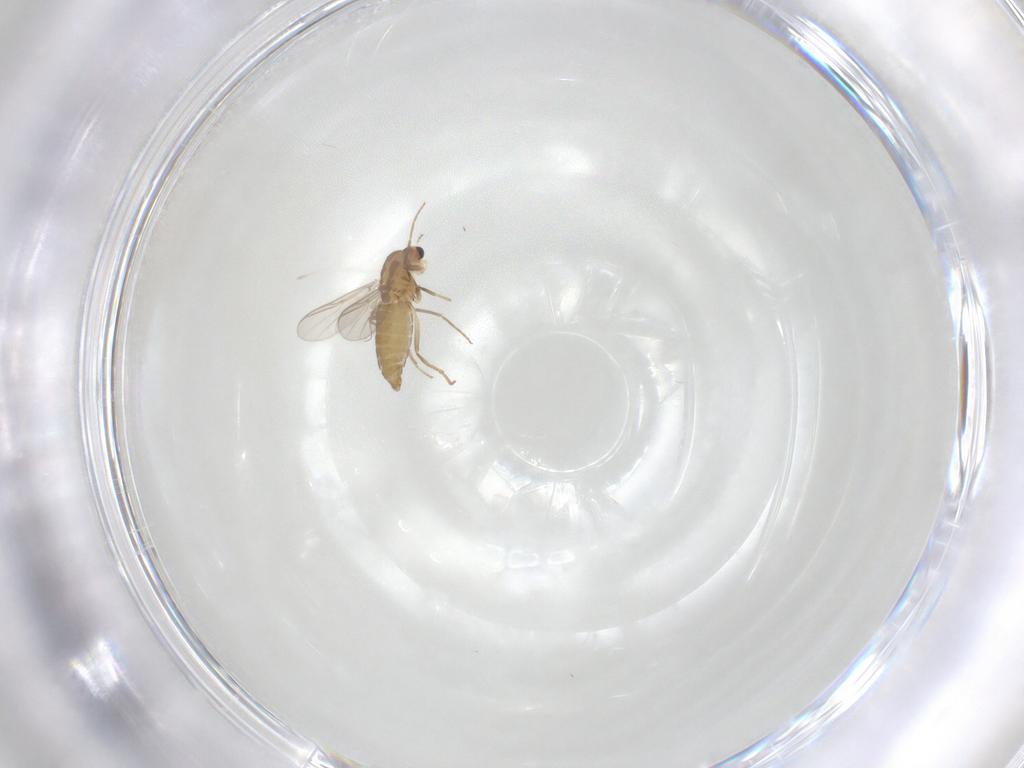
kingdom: Animalia
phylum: Arthropoda
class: Insecta
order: Diptera
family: Chironomidae
